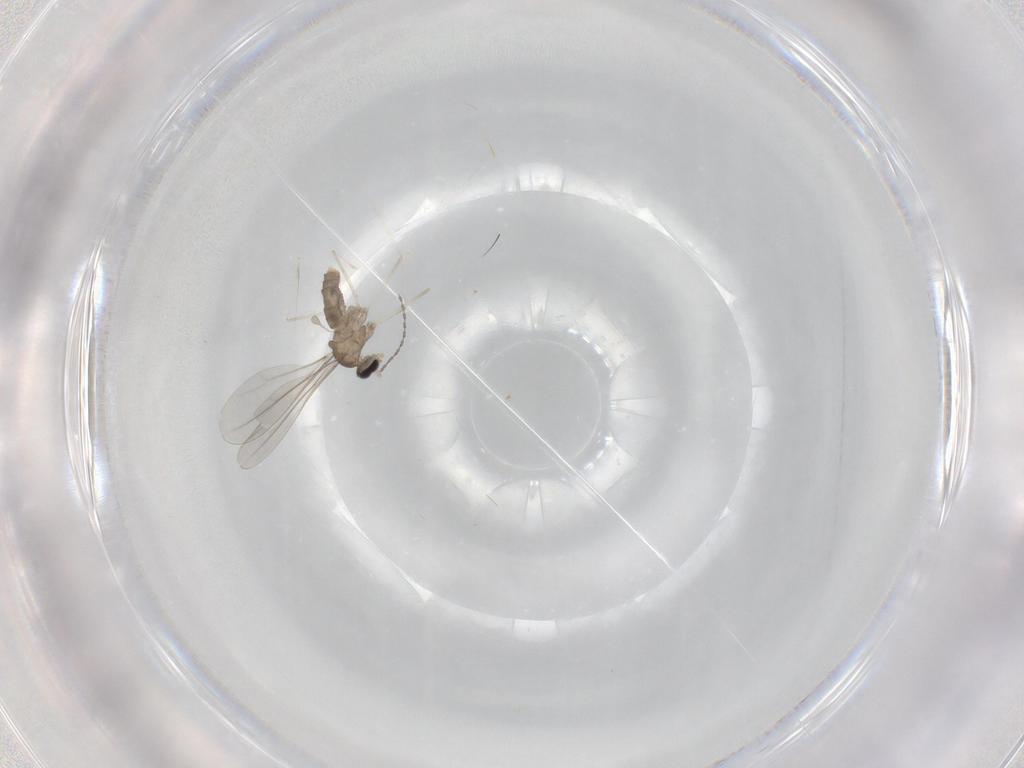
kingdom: Animalia
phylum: Arthropoda
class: Insecta
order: Diptera
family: Cecidomyiidae
